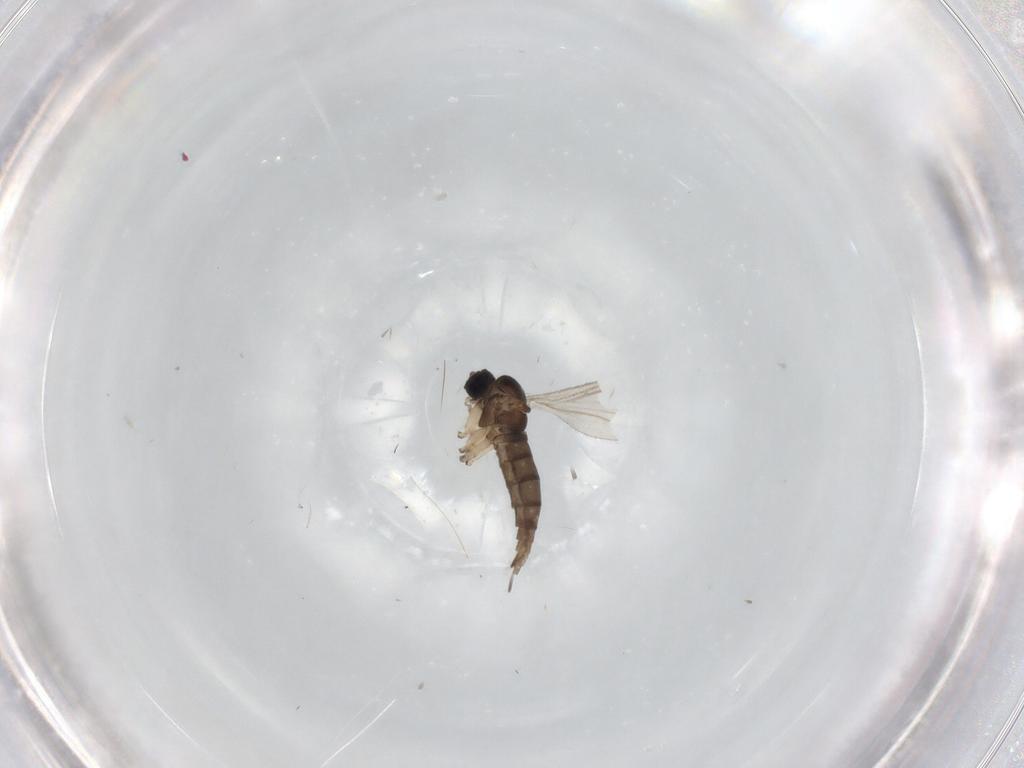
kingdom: Animalia
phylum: Arthropoda
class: Insecta
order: Diptera
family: Sciaridae
